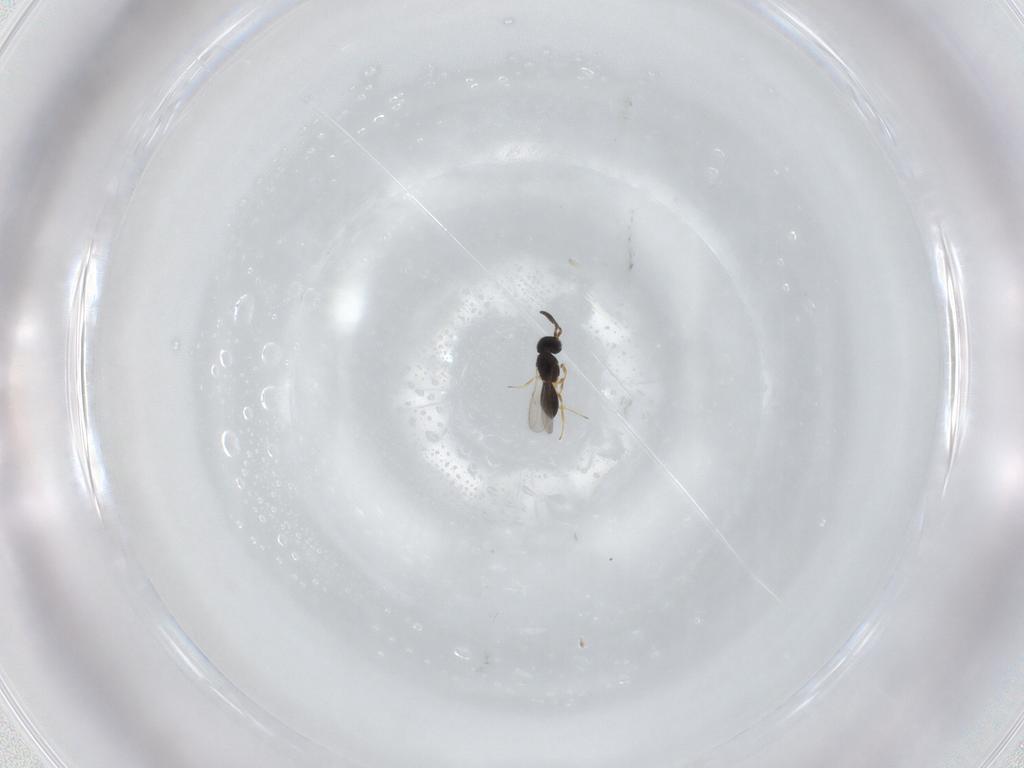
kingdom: Animalia
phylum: Arthropoda
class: Insecta
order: Hymenoptera
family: Scelionidae
